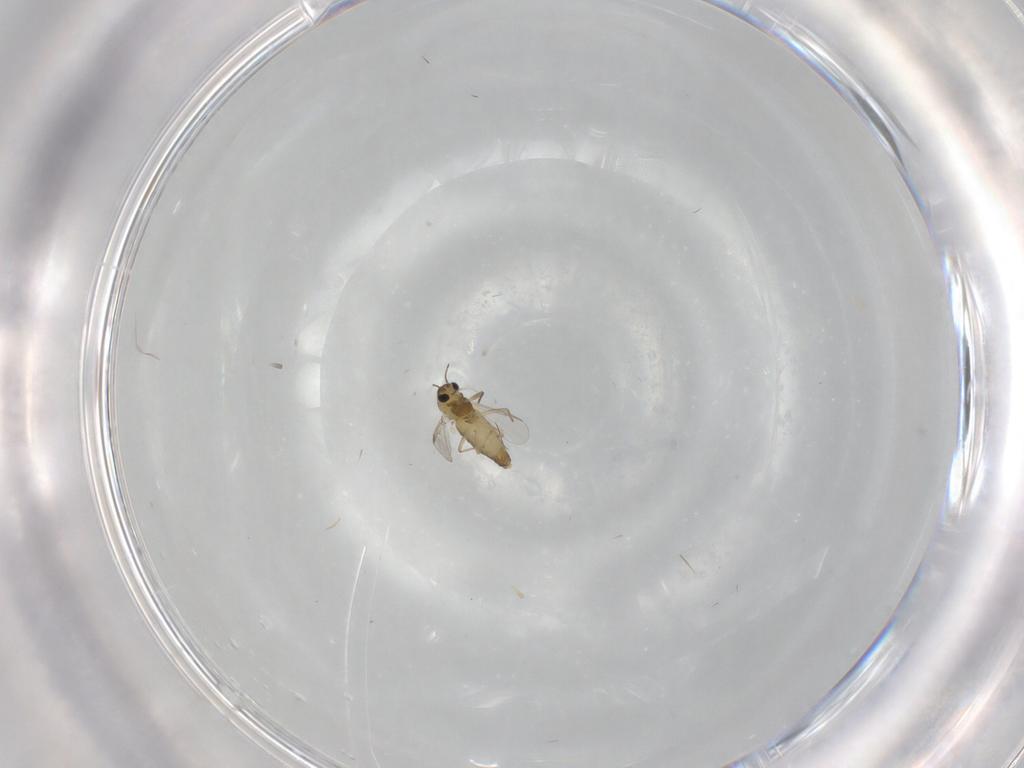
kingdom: Animalia
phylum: Arthropoda
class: Insecta
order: Diptera
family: Chironomidae
